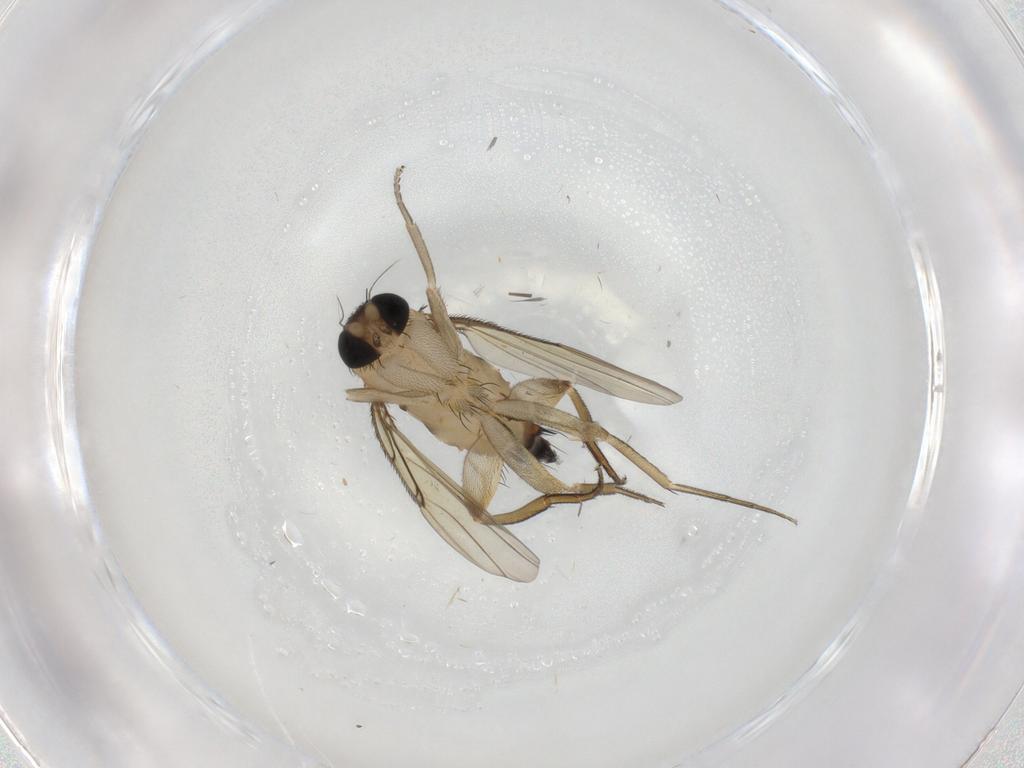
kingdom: Animalia
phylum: Arthropoda
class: Insecta
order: Diptera
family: Phoridae
